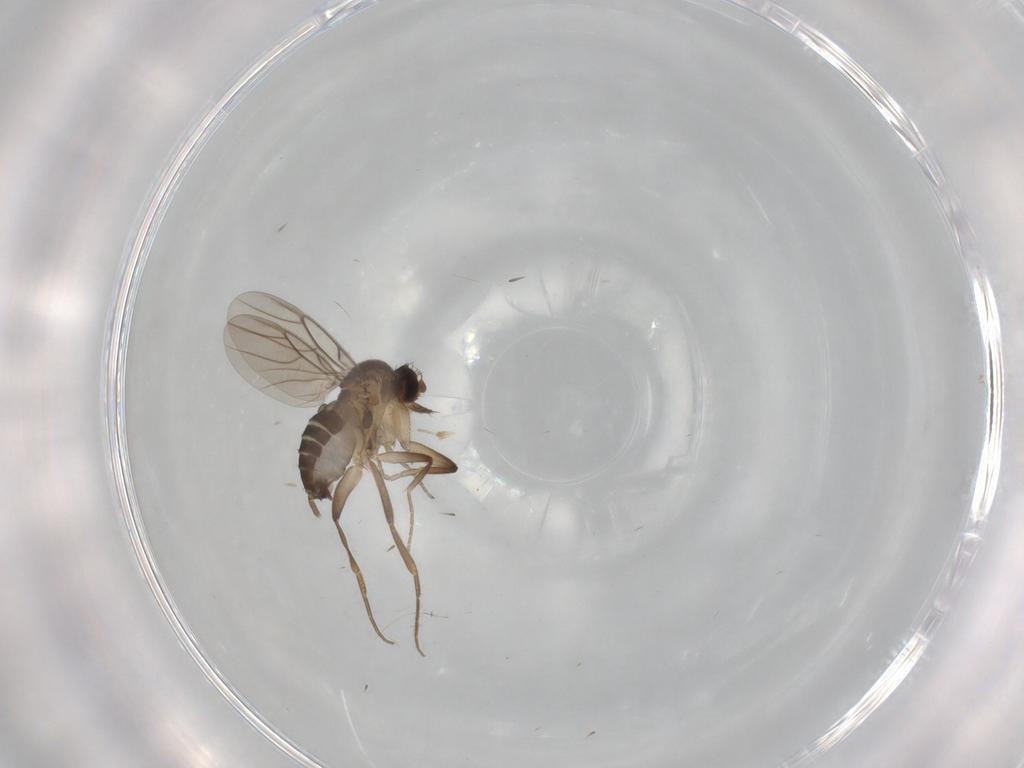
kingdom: Animalia
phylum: Arthropoda
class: Insecta
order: Diptera
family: Phoridae
